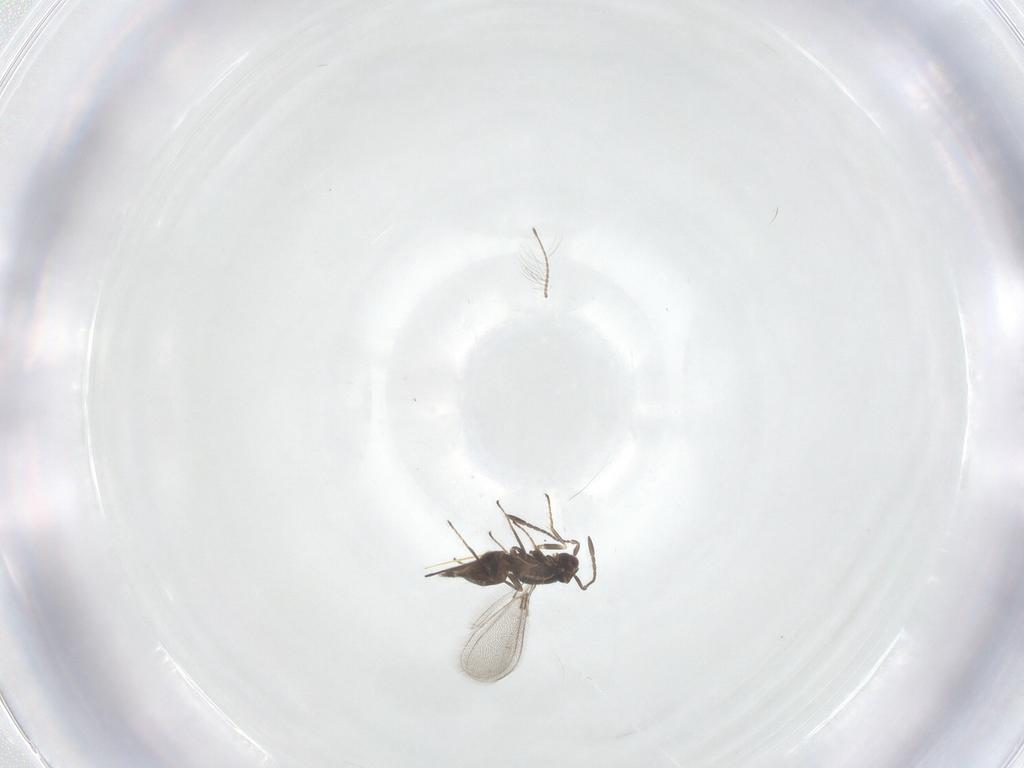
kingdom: Animalia
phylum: Arthropoda
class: Insecta
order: Hymenoptera
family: Mymaridae
